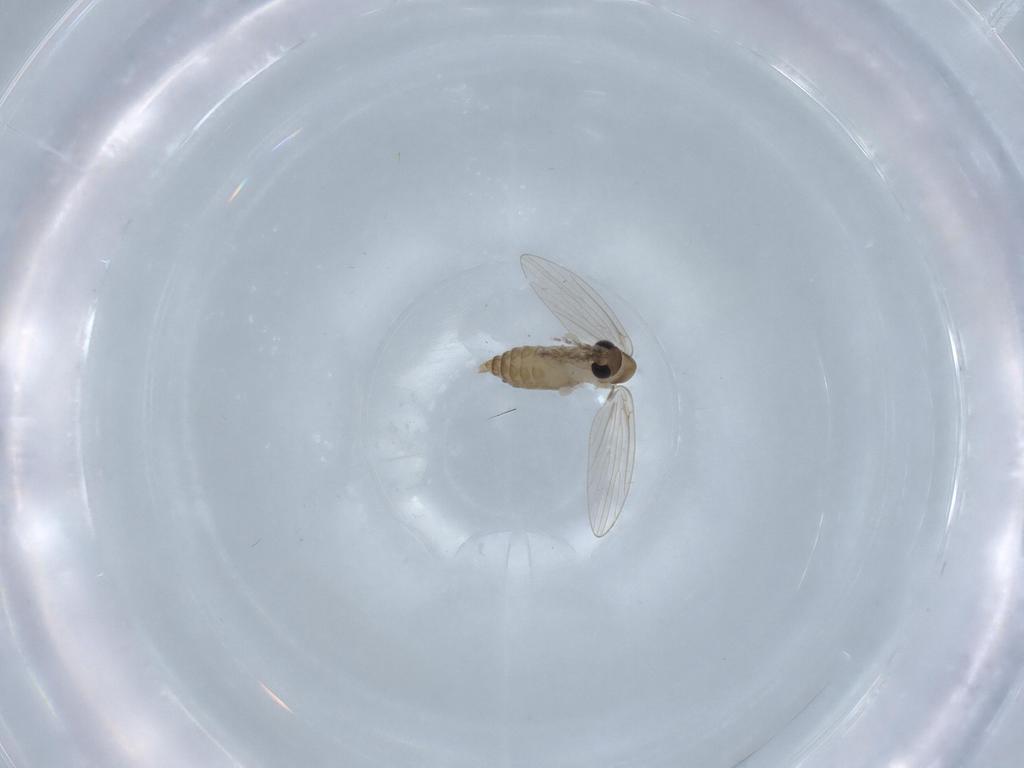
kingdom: Animalia
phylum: Arthropoda
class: Insecta
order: Diptera
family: Psychodidae
